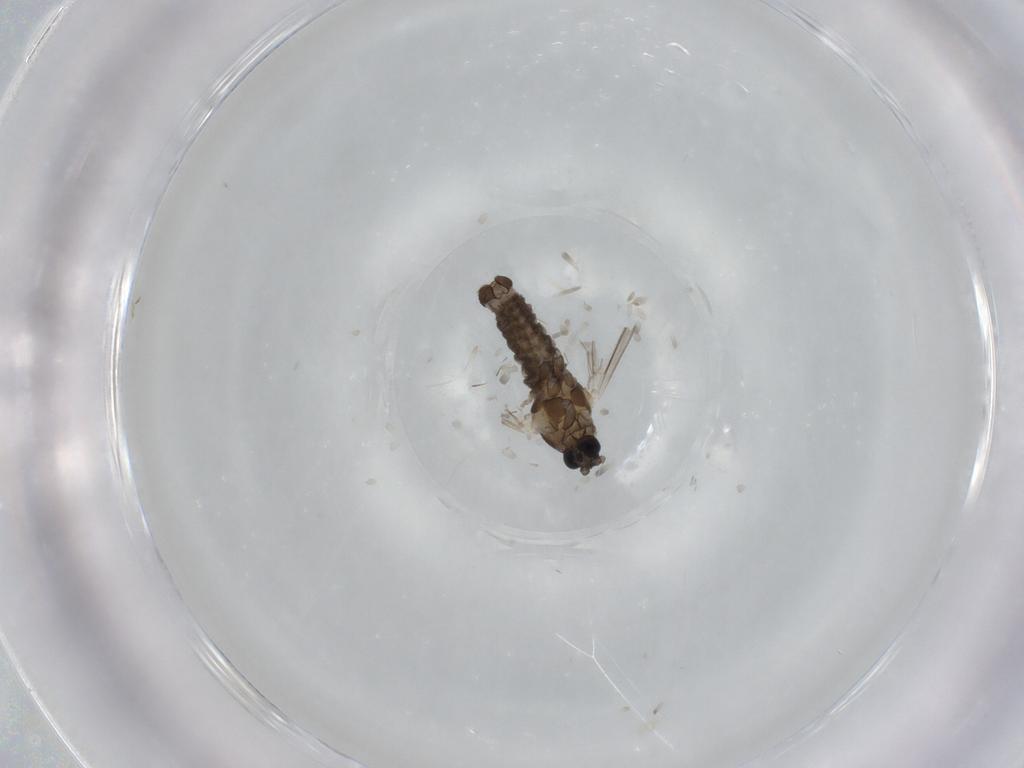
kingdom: Animalia
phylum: Arthropoda
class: Insecta
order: Diptera
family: Cecidomyiidae
